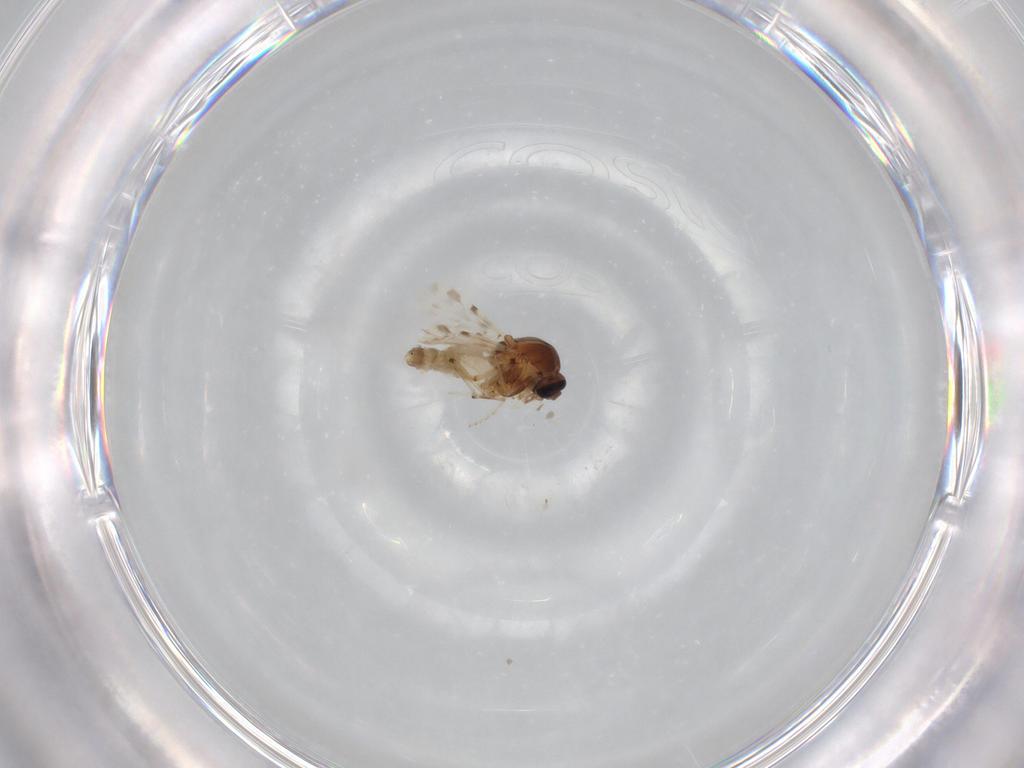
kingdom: Animalia
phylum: Arthropoda
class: Insecta
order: Diptera
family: Ceratopogonidae
